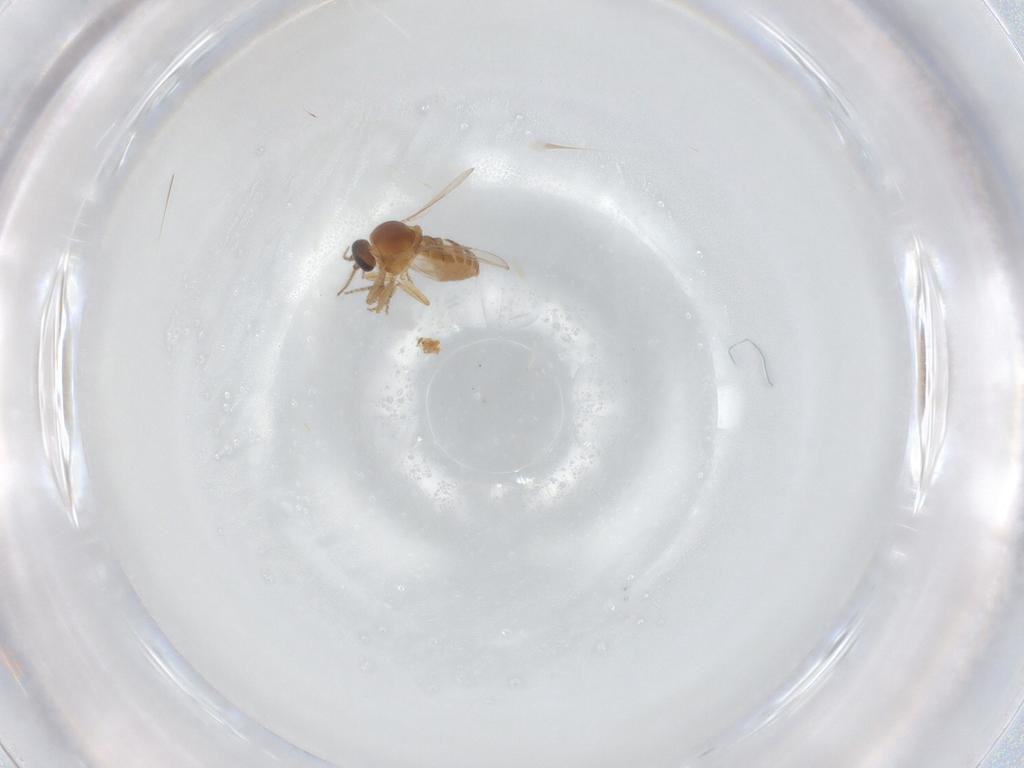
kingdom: Animalia
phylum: Arthropoda
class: Insecta
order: Diptera
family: Ceratopogonidae
